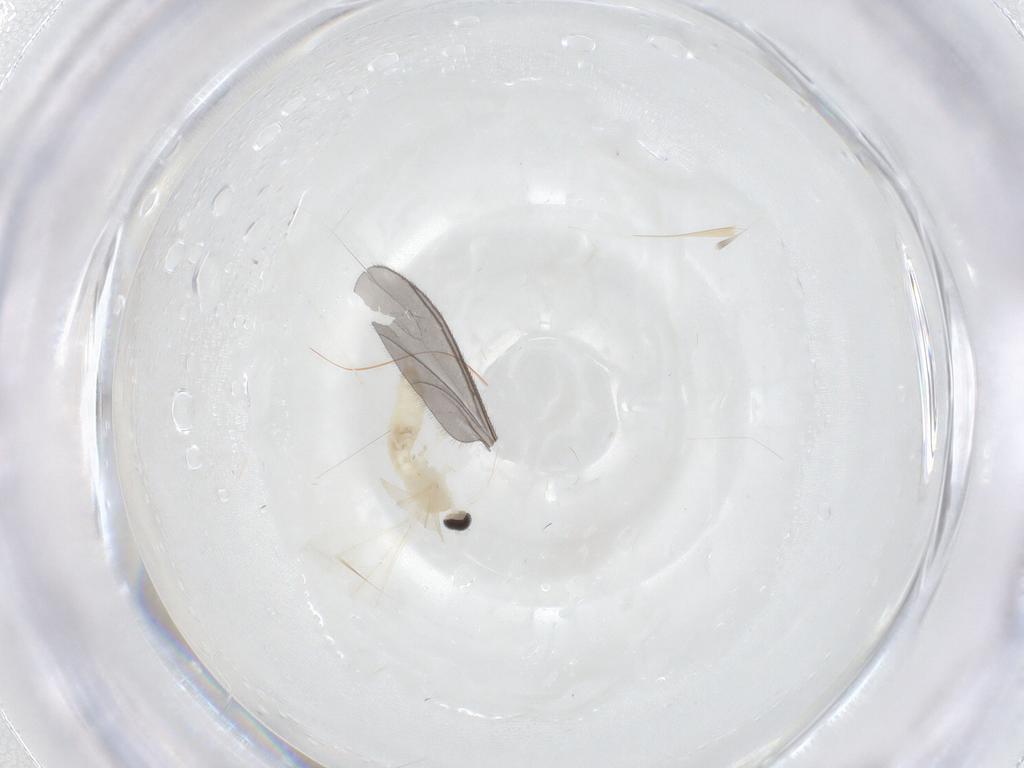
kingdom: Animalia
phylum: Arthropoda
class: Insecta
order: Diptera
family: Cecidomyiidae
